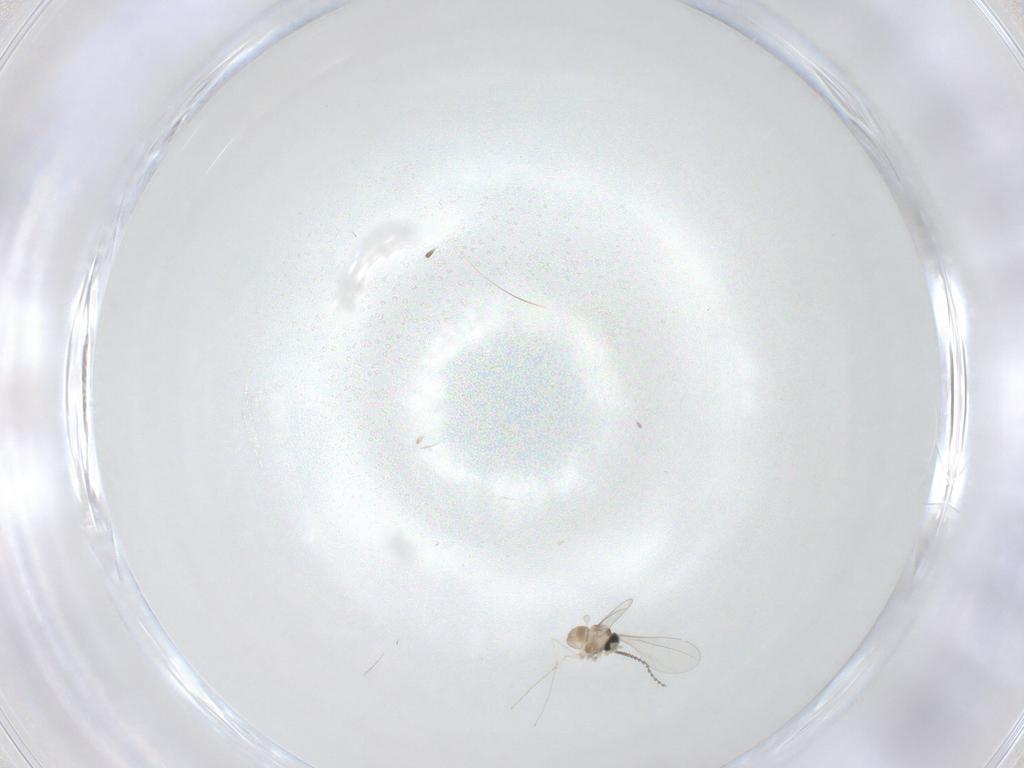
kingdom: Animalia
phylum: Arthropoda
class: Insecta
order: Diptera
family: Cecidomyiidae
